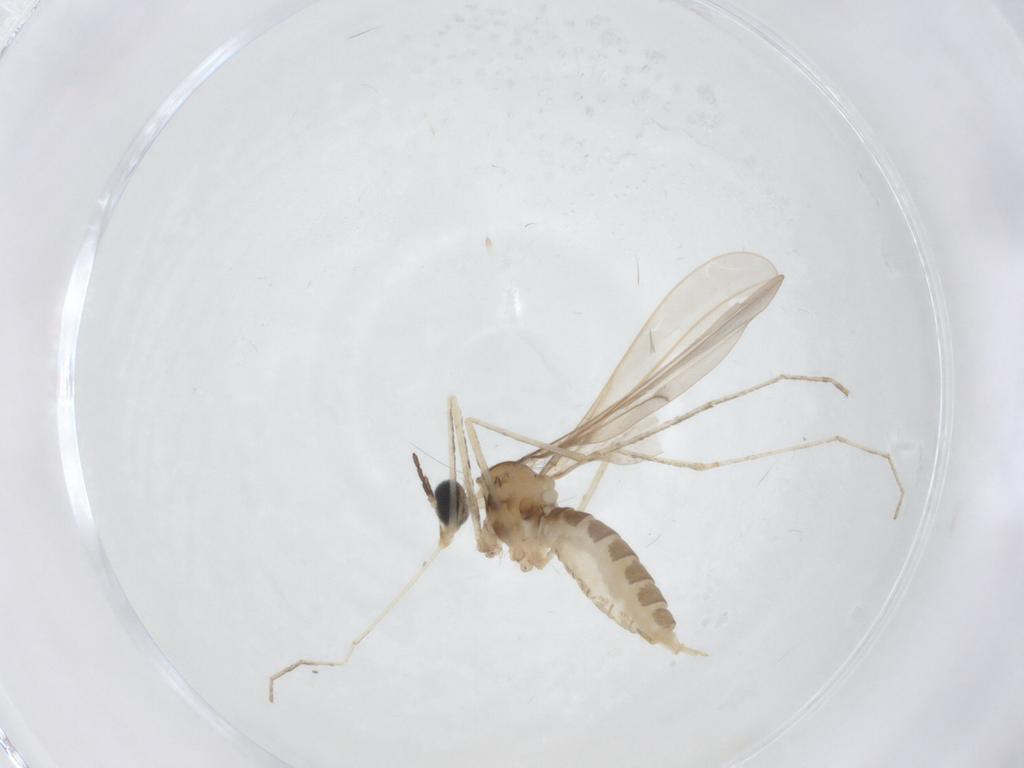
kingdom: Animalia
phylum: Arthropoda
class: Insecta
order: Diptera
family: Cecidomyiidae
